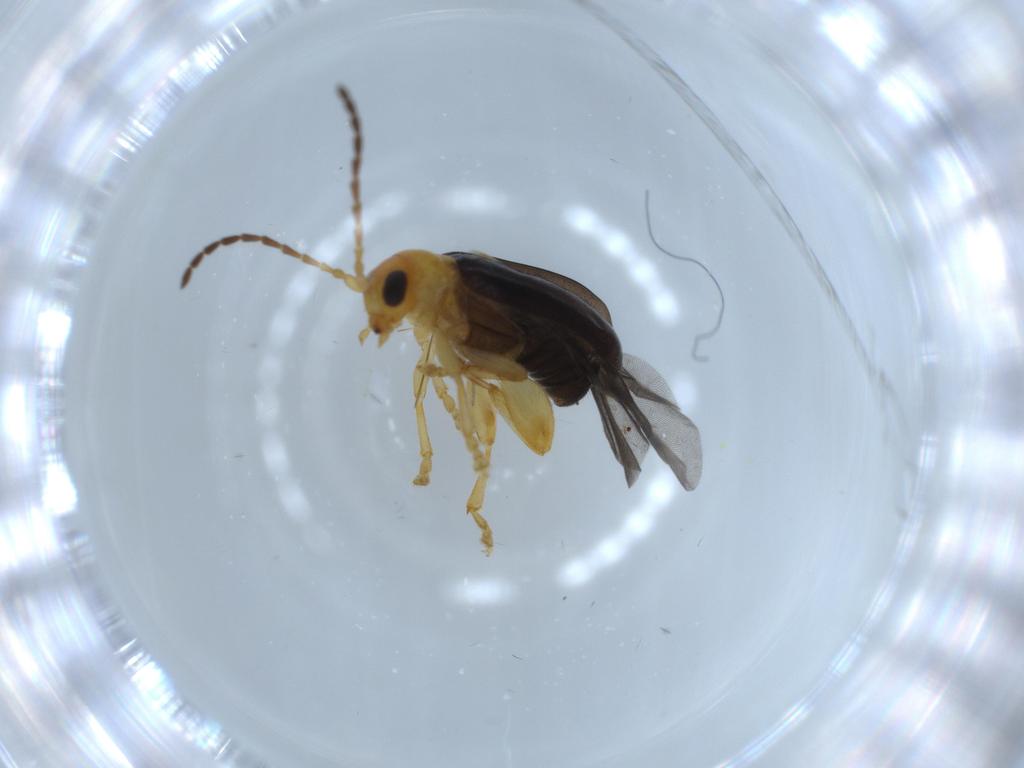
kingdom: Animalia
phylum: Arthropoda
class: Insecta
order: Coleoptera
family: Chrysomelidae
